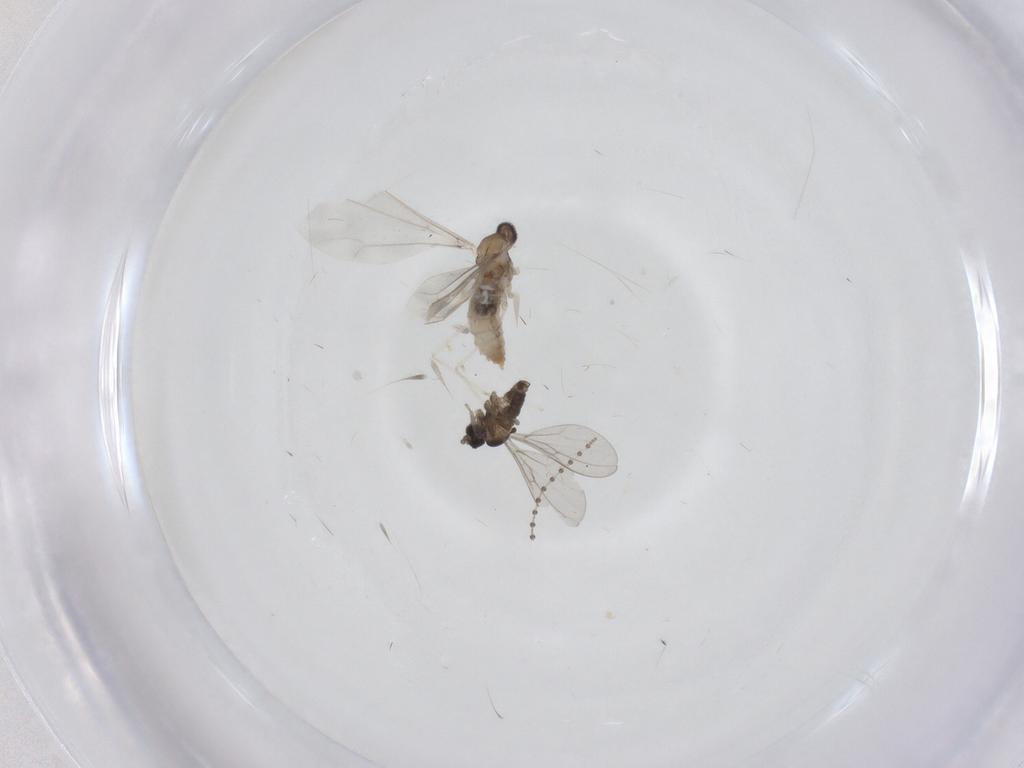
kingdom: Animalia
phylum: Arthropoda
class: Insecta
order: Diptera
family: Cecidomyiidae
